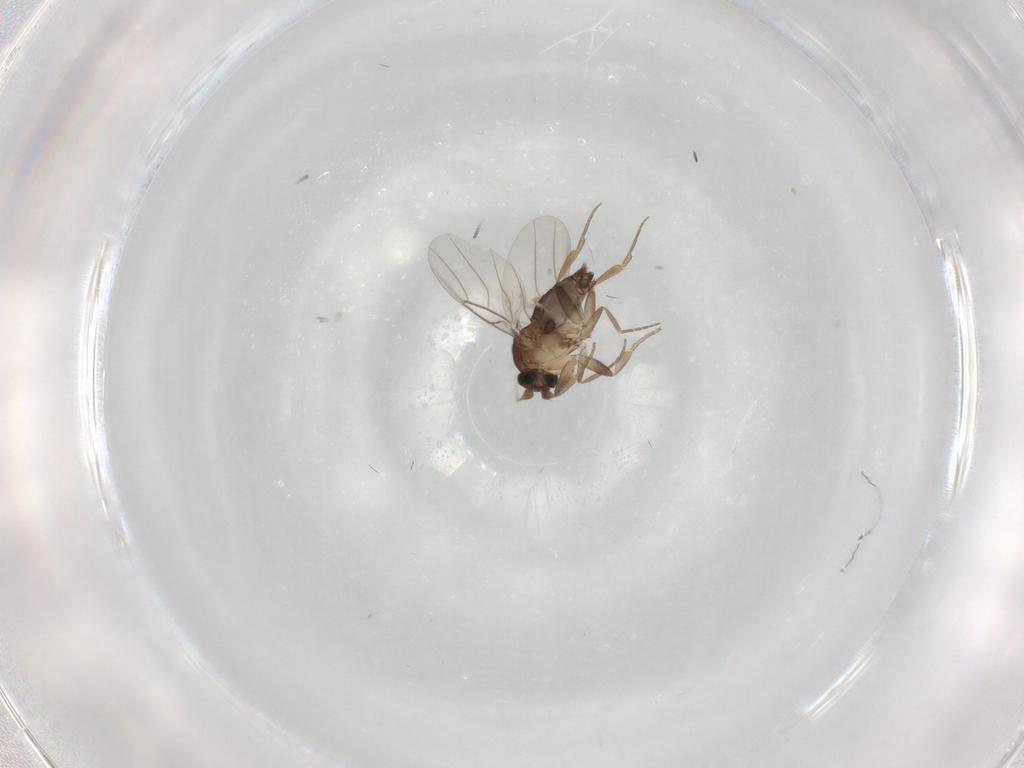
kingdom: Animalia
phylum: Arthropoda
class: Insecta
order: Diptera
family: Phoridae
